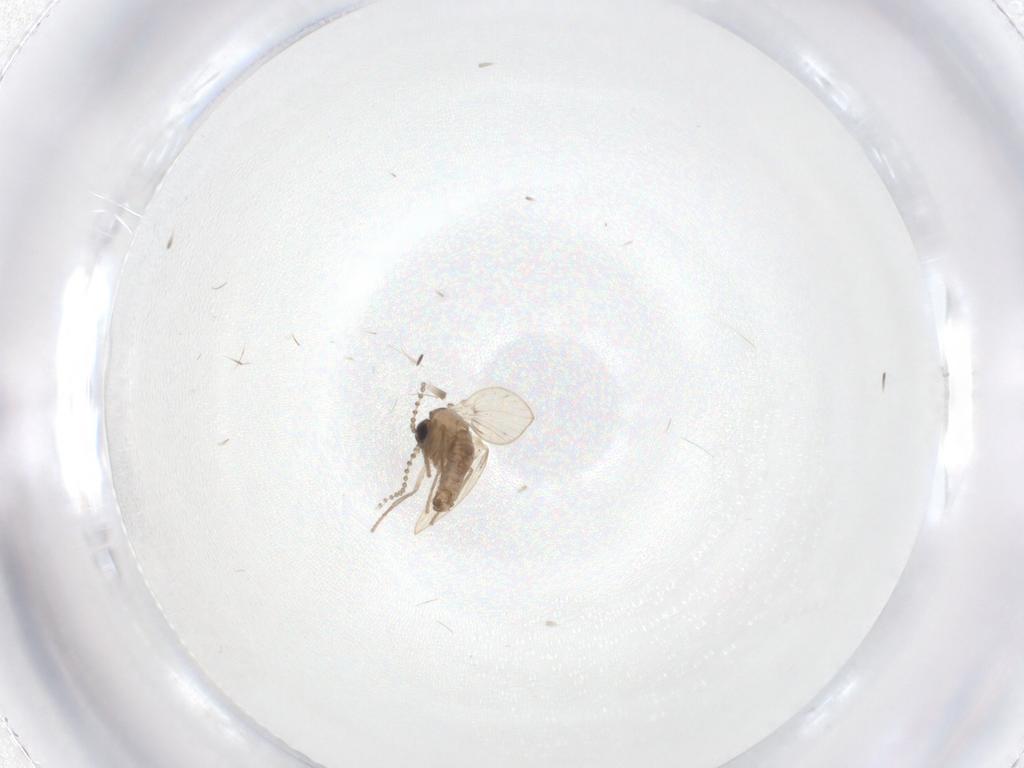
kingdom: Animalia
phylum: Arthropoda
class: Insecta
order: Diptera
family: Psychodidae
